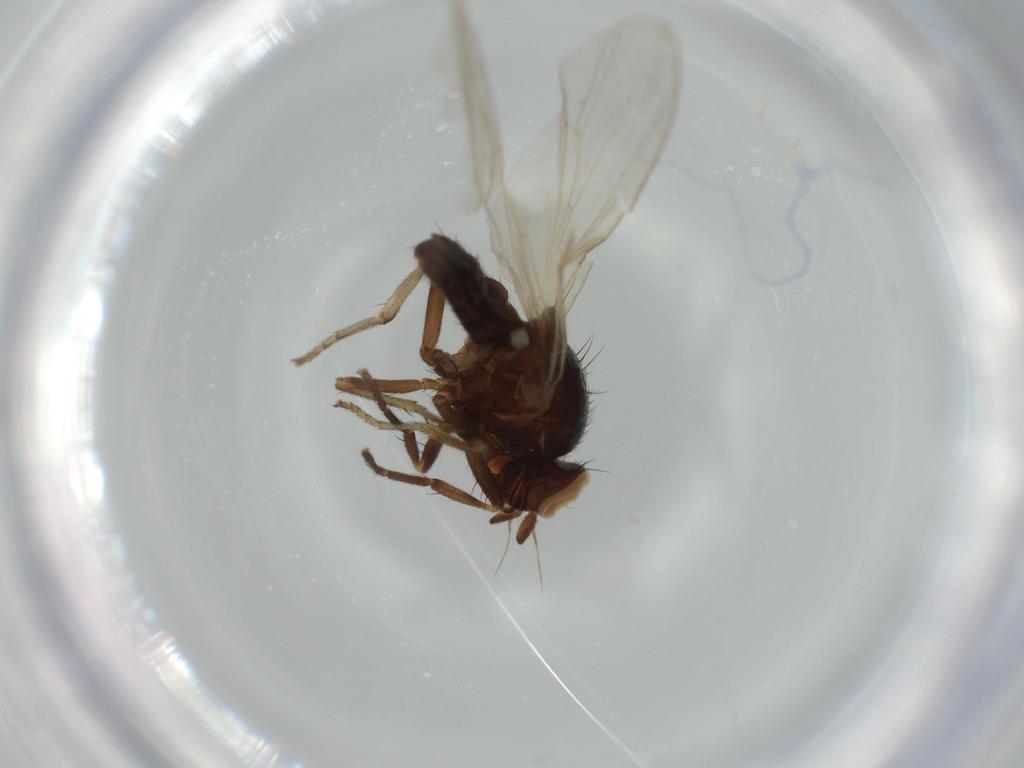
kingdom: Animalia
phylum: Arthropoda
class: Insecta
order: Diptera
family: Lauxaniidae
